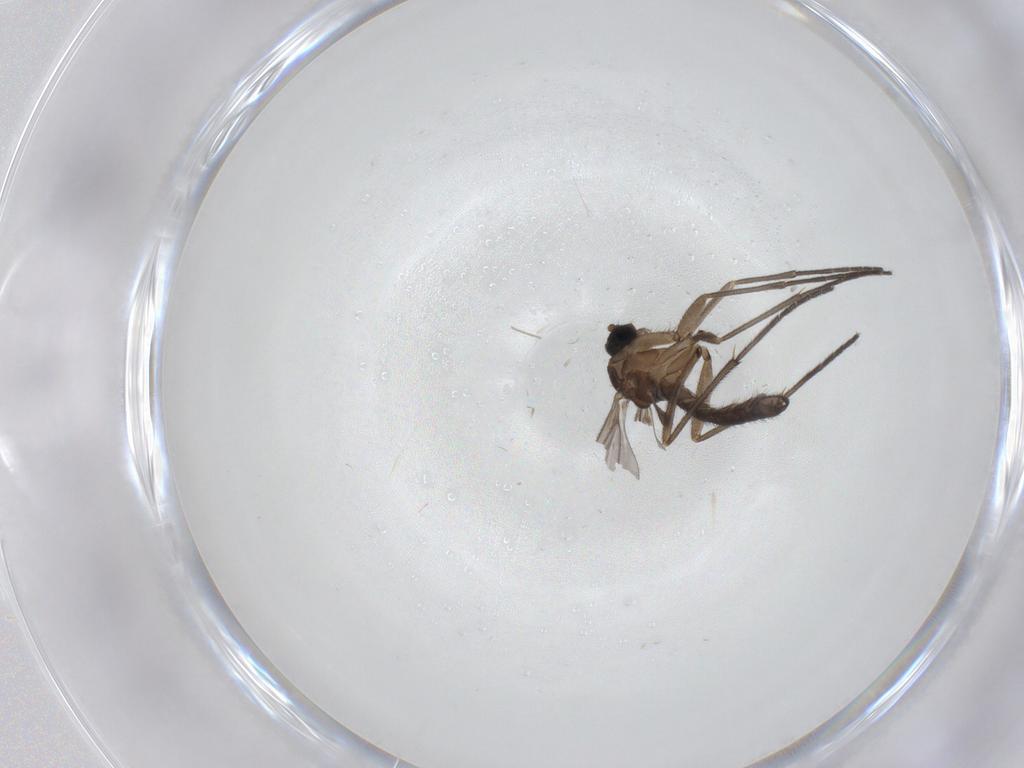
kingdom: Animalia
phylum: Arthropoda
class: Insecta
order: Diptera
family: Sciaridae
